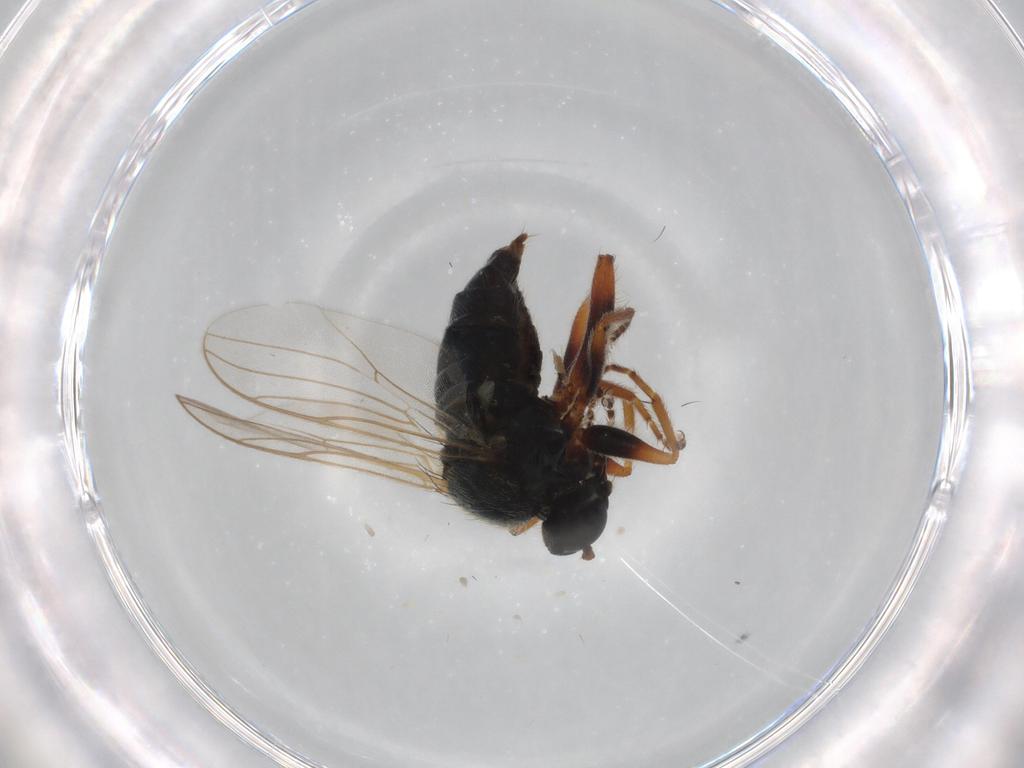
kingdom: Animalia
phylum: Arthropoda
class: Insecta
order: Diptera
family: Hybotidae
